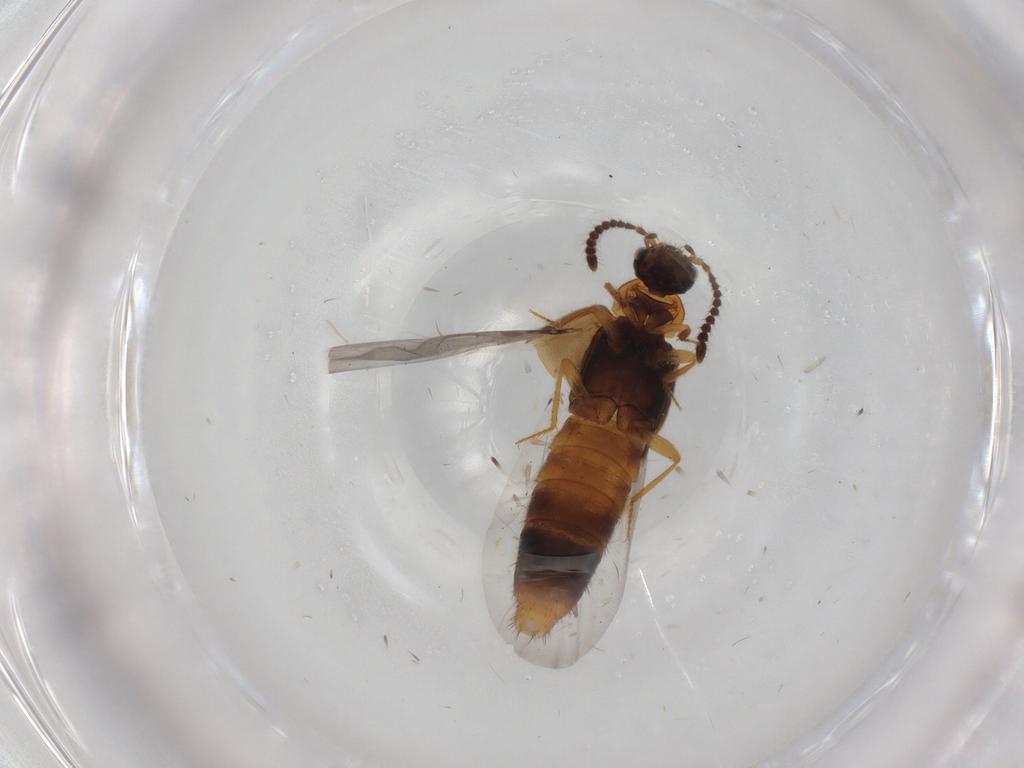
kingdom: Animalia
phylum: Arthropoda
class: Insecta
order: Coleoptera
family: Staphylinidae
